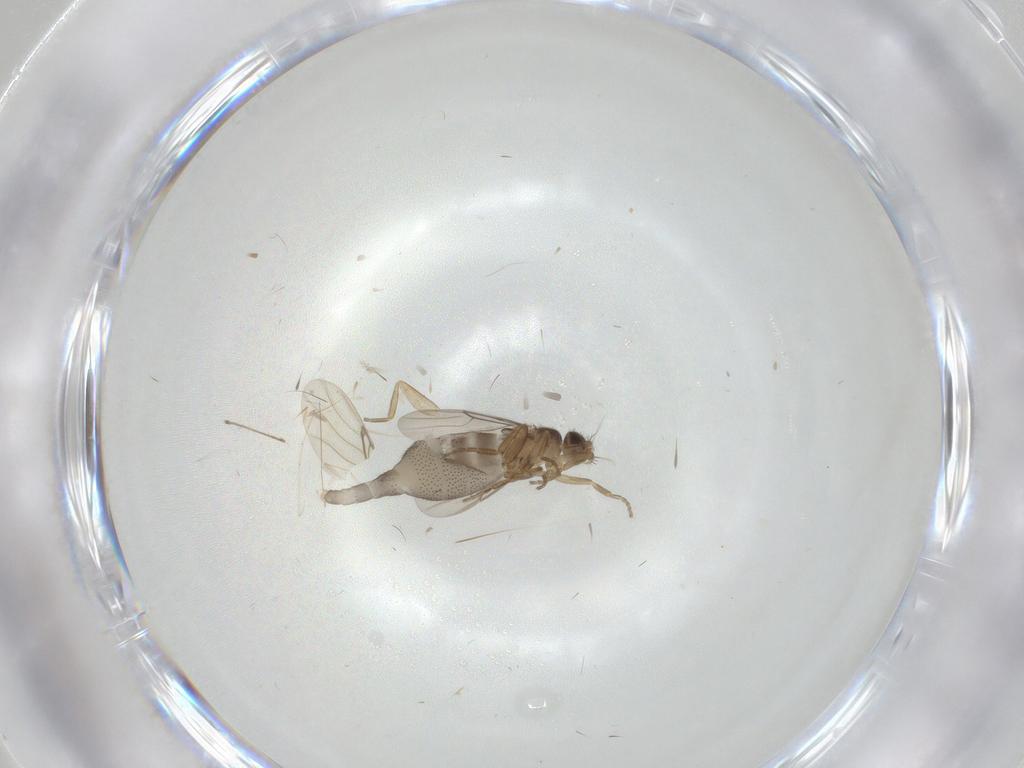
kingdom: Animalia
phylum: Arthropoda
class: Insecta
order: Diptera
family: Cecidomyiidae
